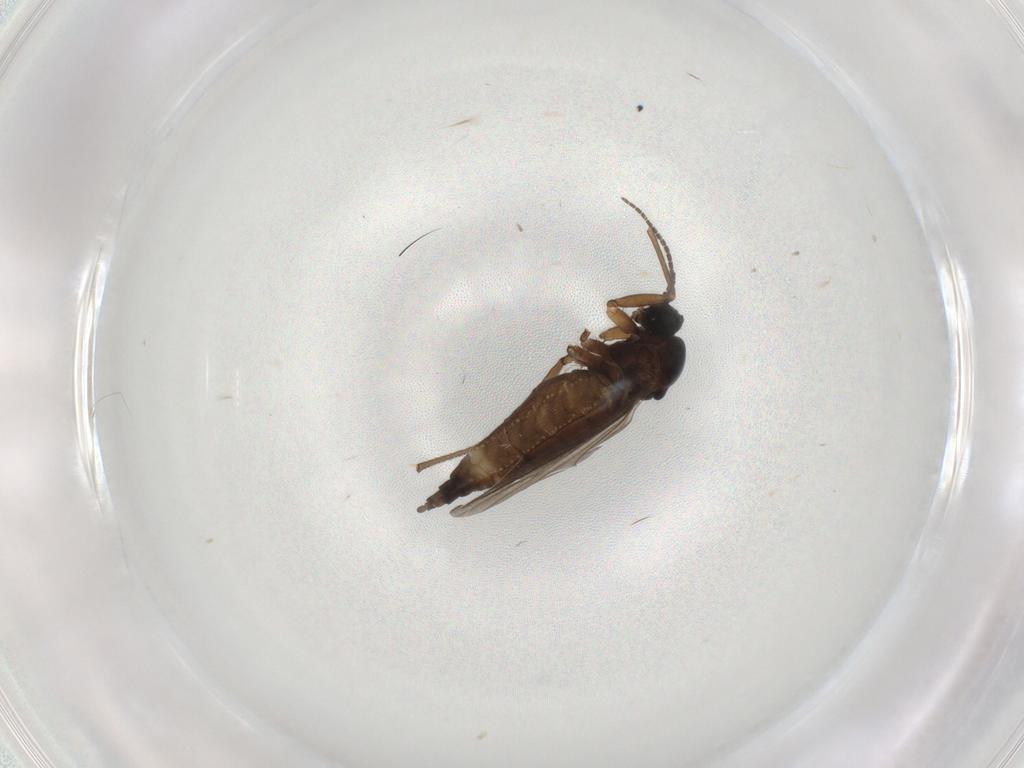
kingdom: Animalia
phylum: Arthropoda
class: Insecta
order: Diptera
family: Sciaridae
